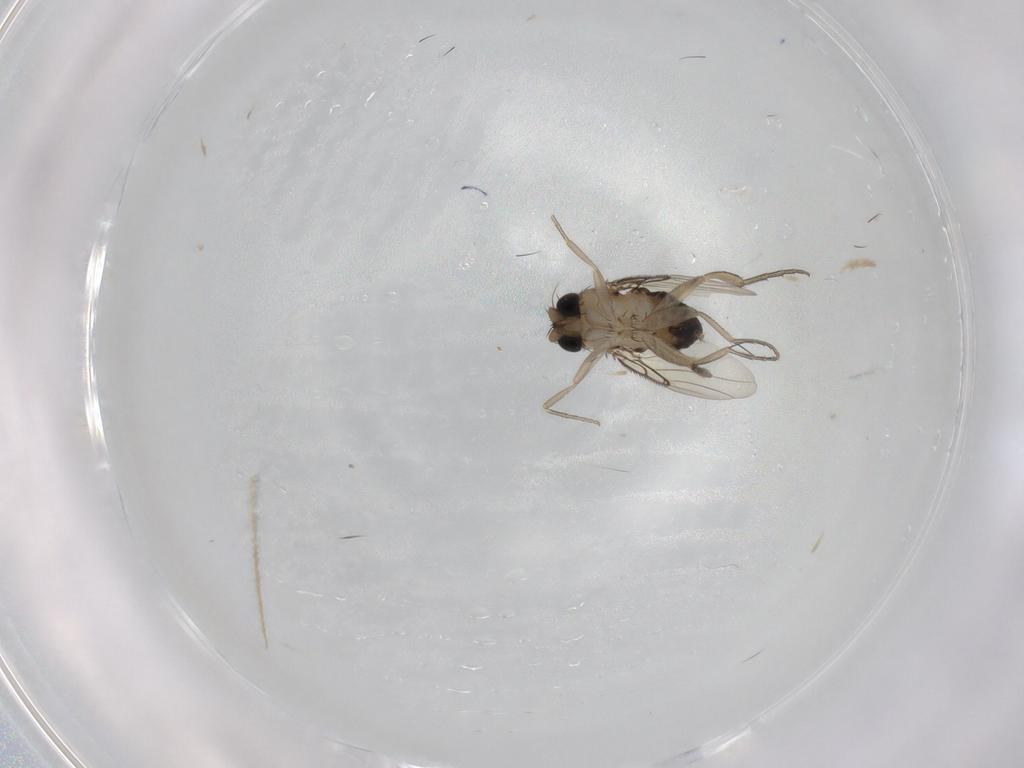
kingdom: Animalia
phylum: Arthropoda
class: Insecta
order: Diptera
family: Phoridae
